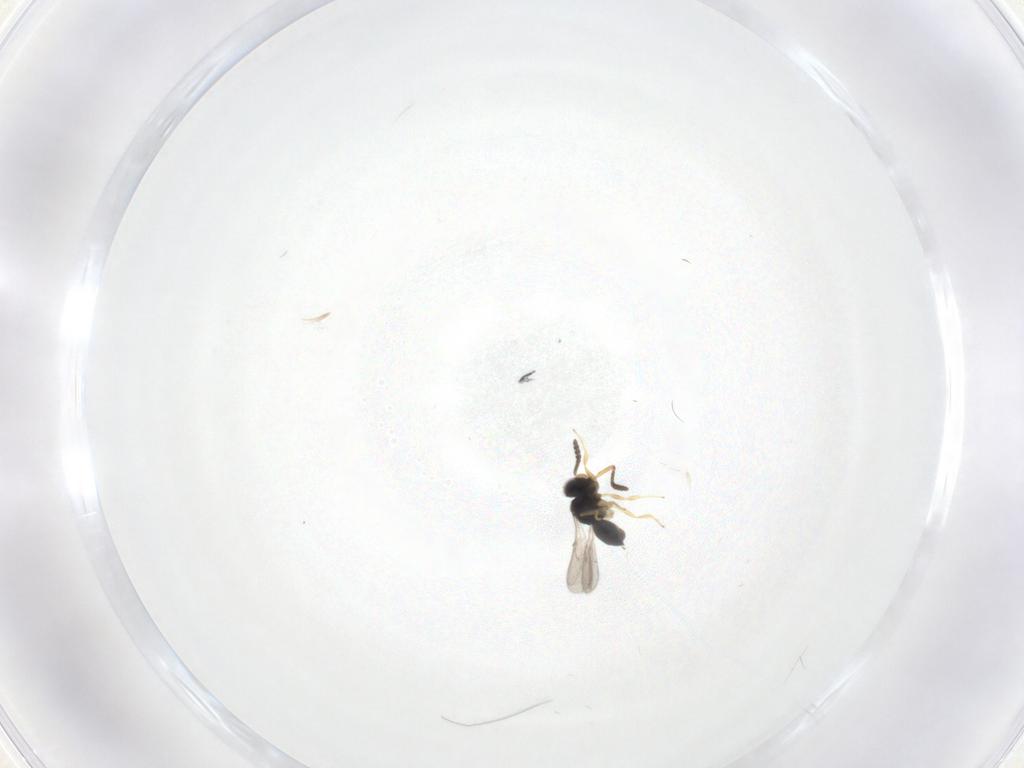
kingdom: Animalia
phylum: Arthropoda
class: Insecta
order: Hymenoptera
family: Scelionidae
